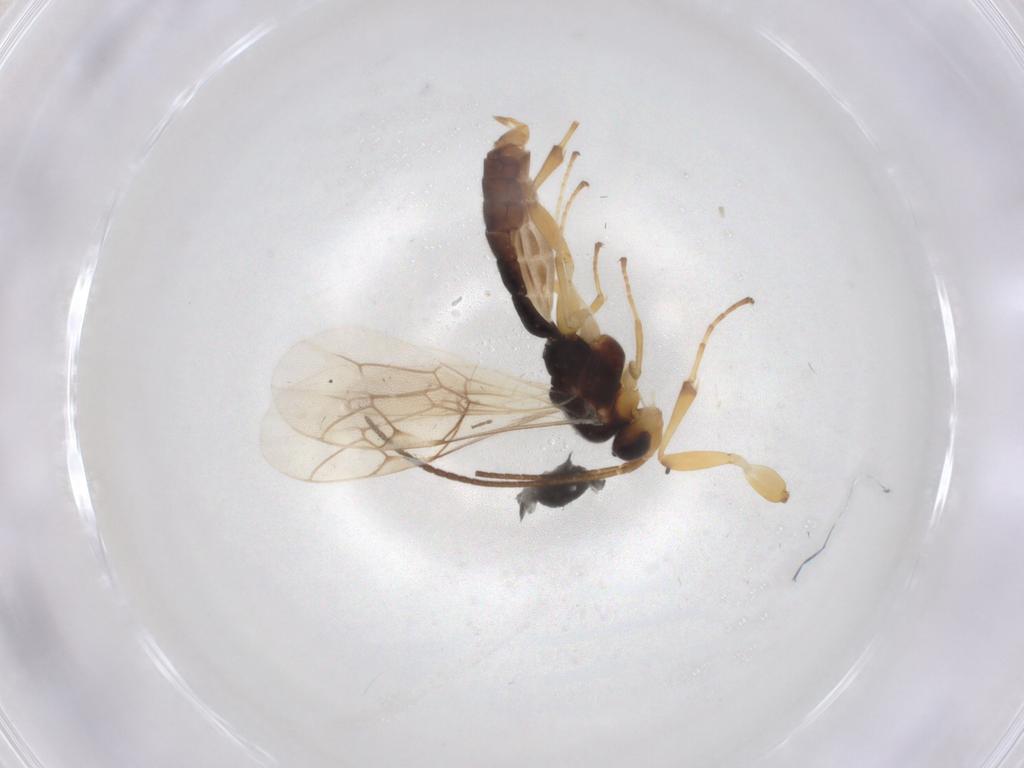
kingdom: Animalia
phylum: Arthropoda
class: Insecta
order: Hymenoptera
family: Ichneumonidae
